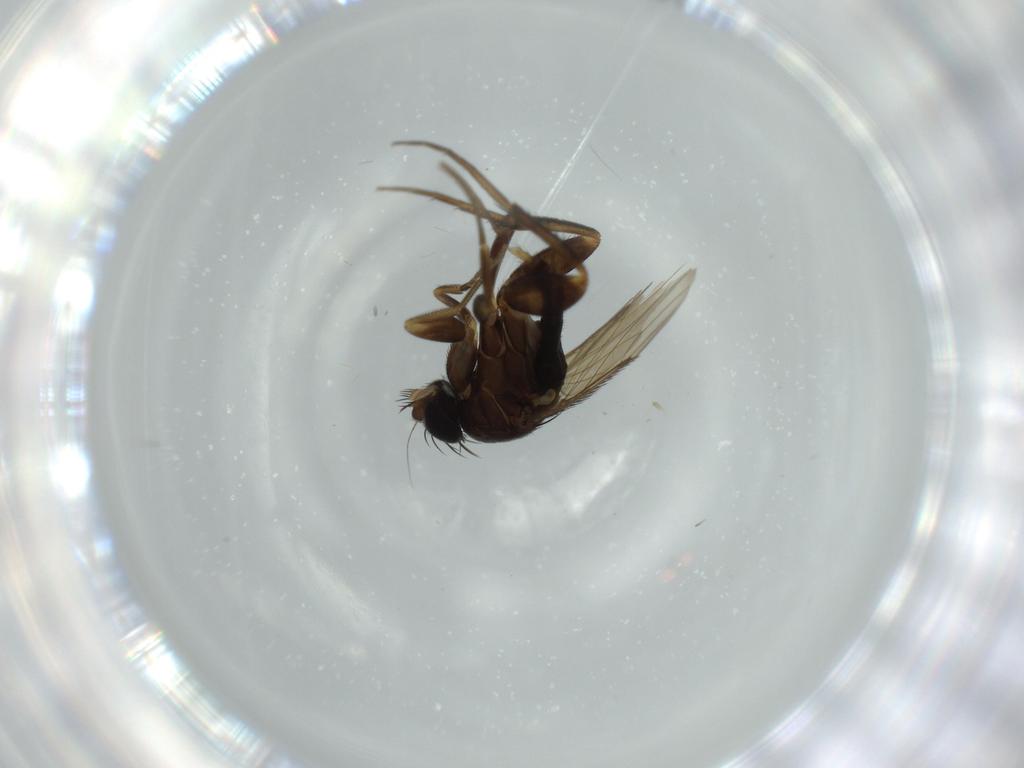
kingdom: Animalia
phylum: Arthropoda
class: Insecta
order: Diptera
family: Phoridae
